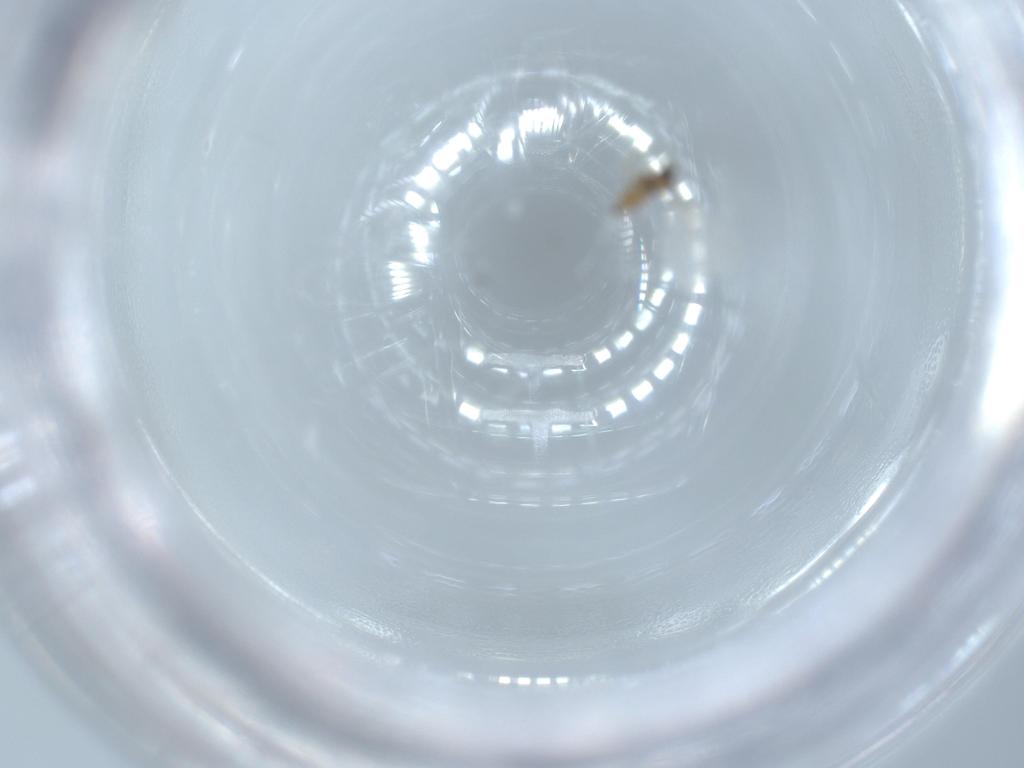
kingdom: Animalia
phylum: Arthropoda
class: Insecta
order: Diptera
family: Cecidomyiidae
